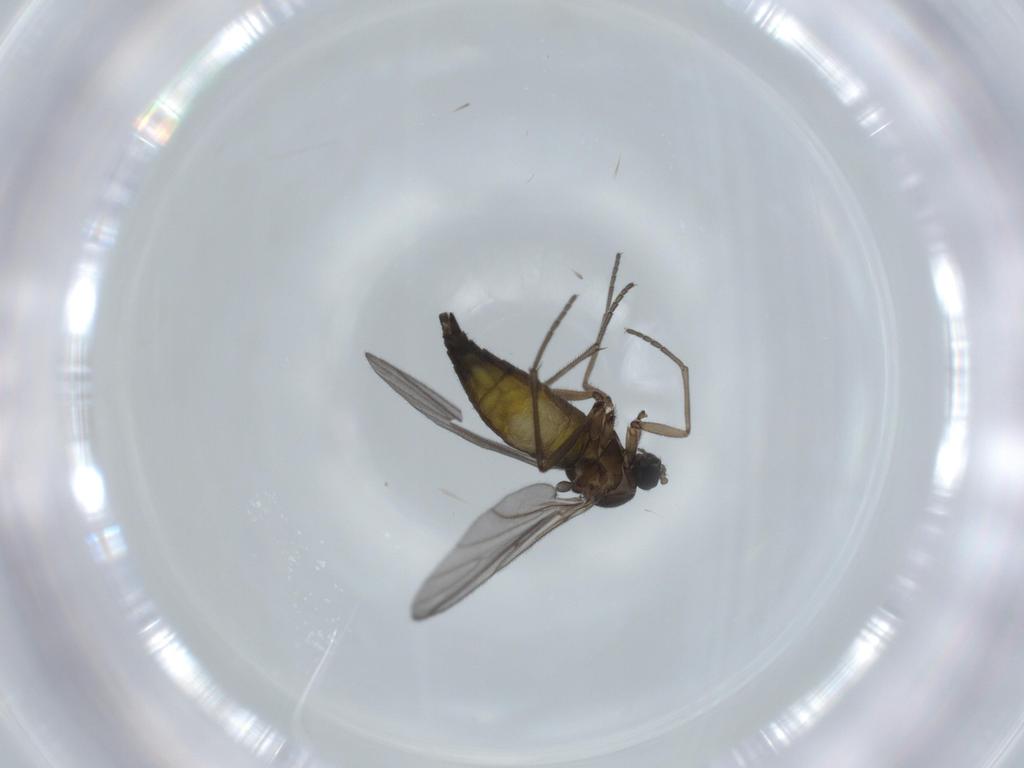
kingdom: Animalia
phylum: Arthropoda
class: Insecta
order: Diptera
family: Sciaridae
